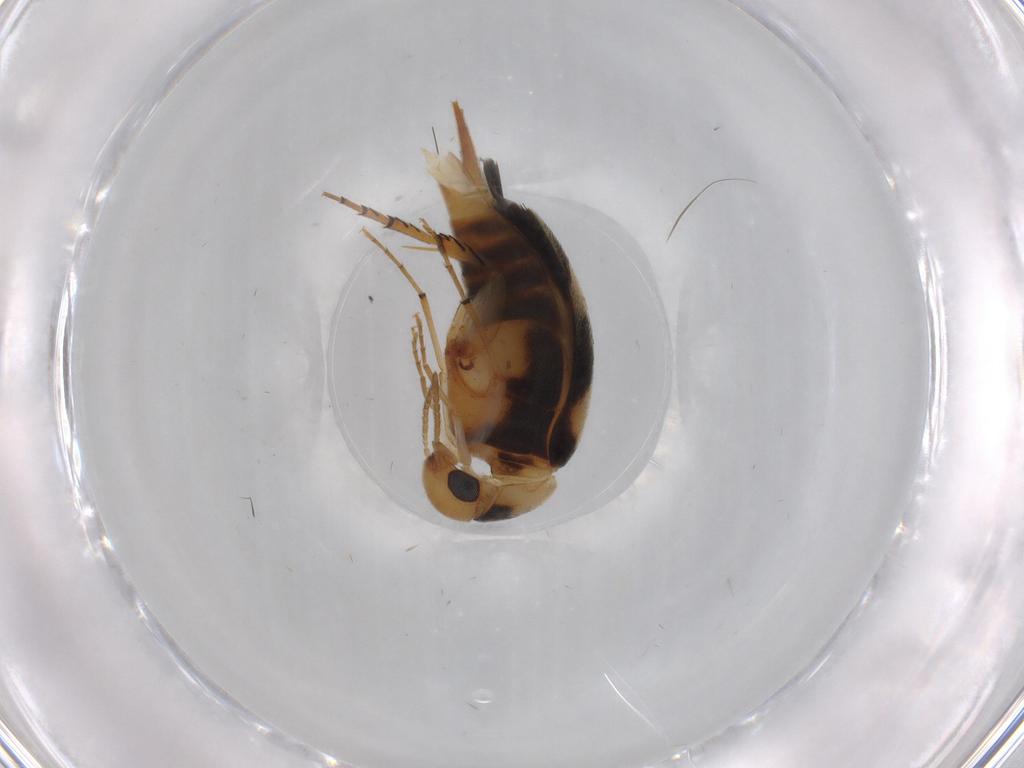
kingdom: Animalia
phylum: Arthropoda
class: Insecta
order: Coleoptera
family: Mordellidae
